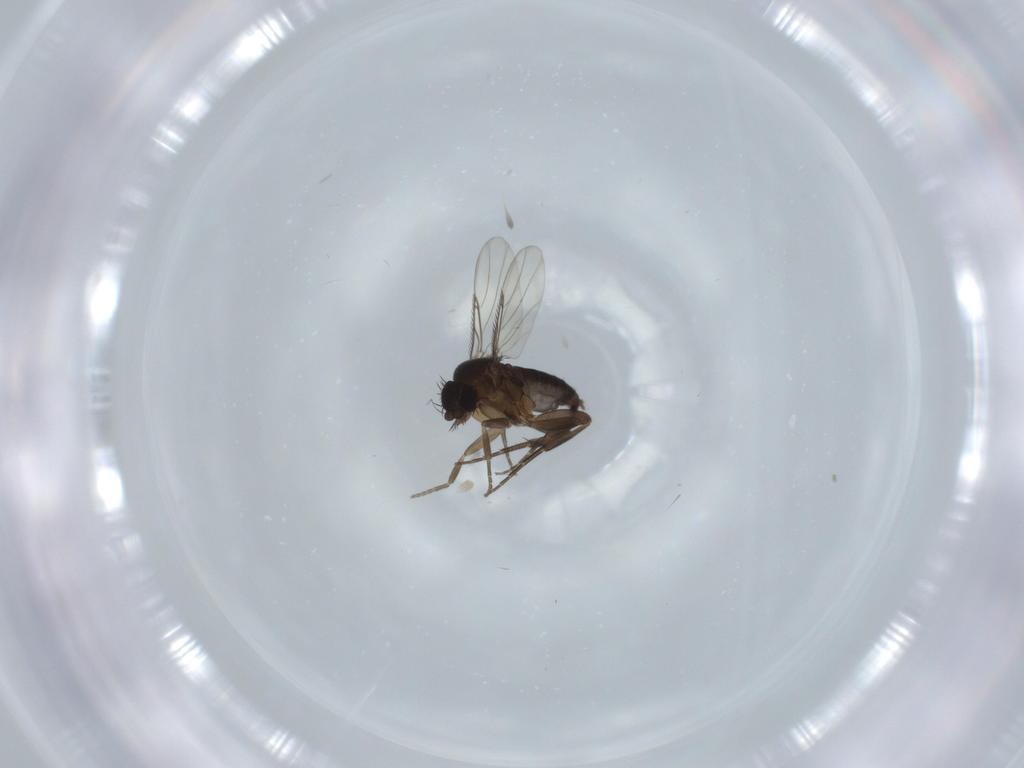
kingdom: Animalia
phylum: Arthropoda
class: Insecta
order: Diptera
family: Phoridae
